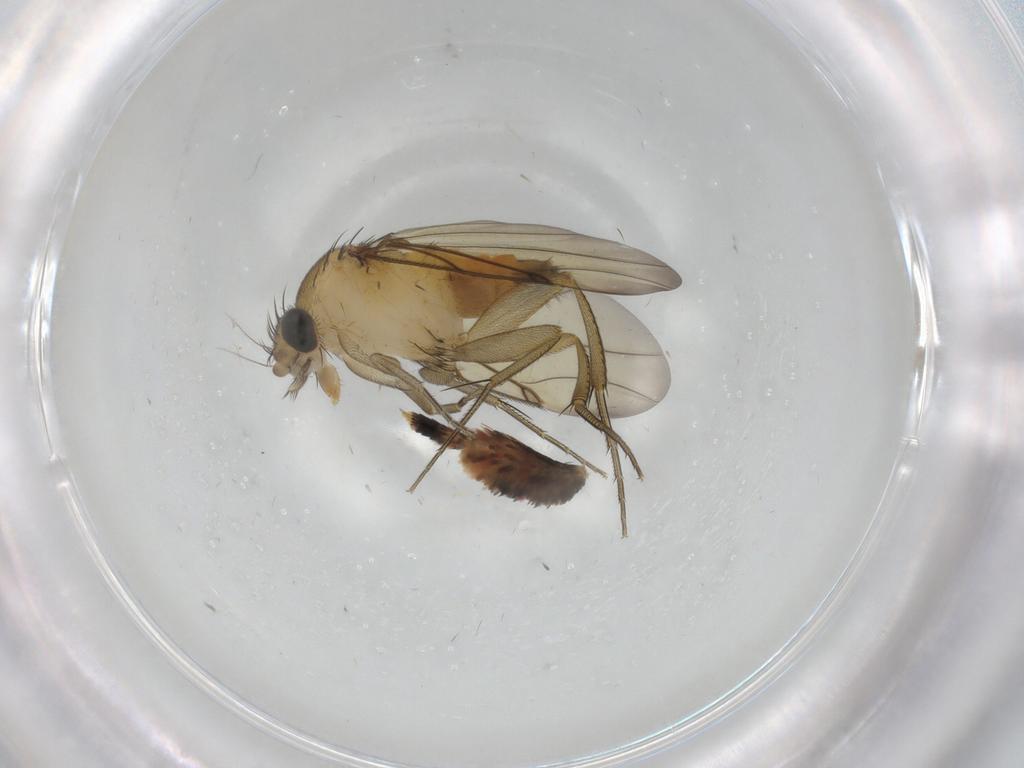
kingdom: Animalia
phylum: Arthropoda
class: Insecta
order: Diptera
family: Phoridae
